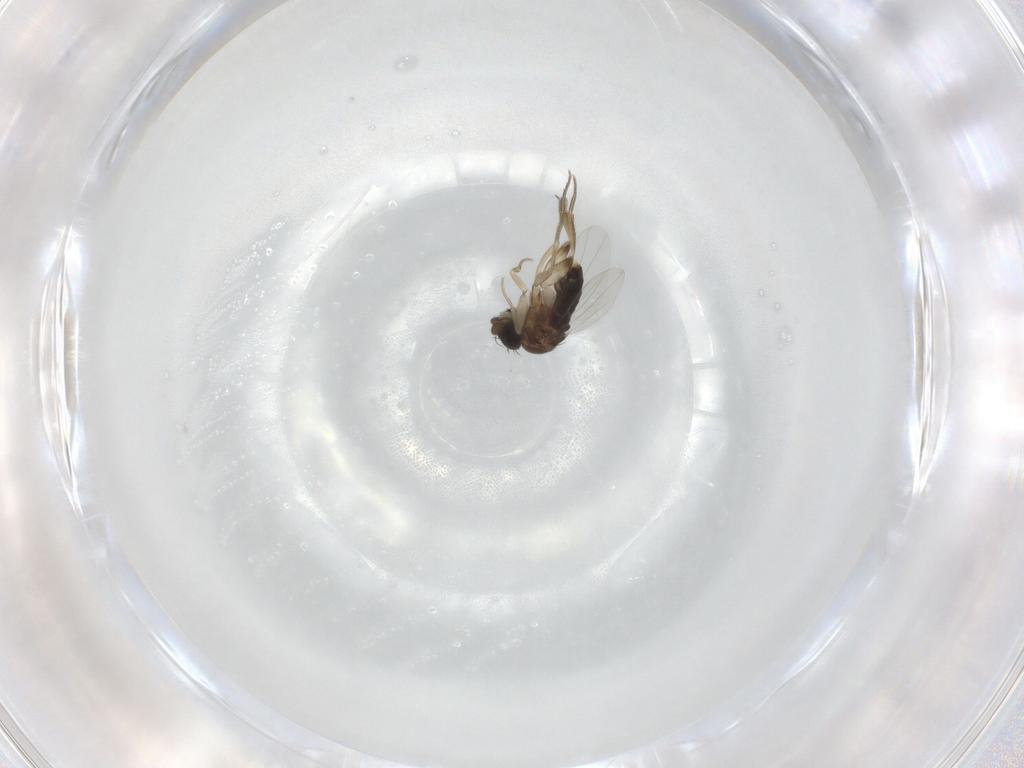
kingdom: Animalia
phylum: Arthropoda
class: Insecta
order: Diptera
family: Phoridae
